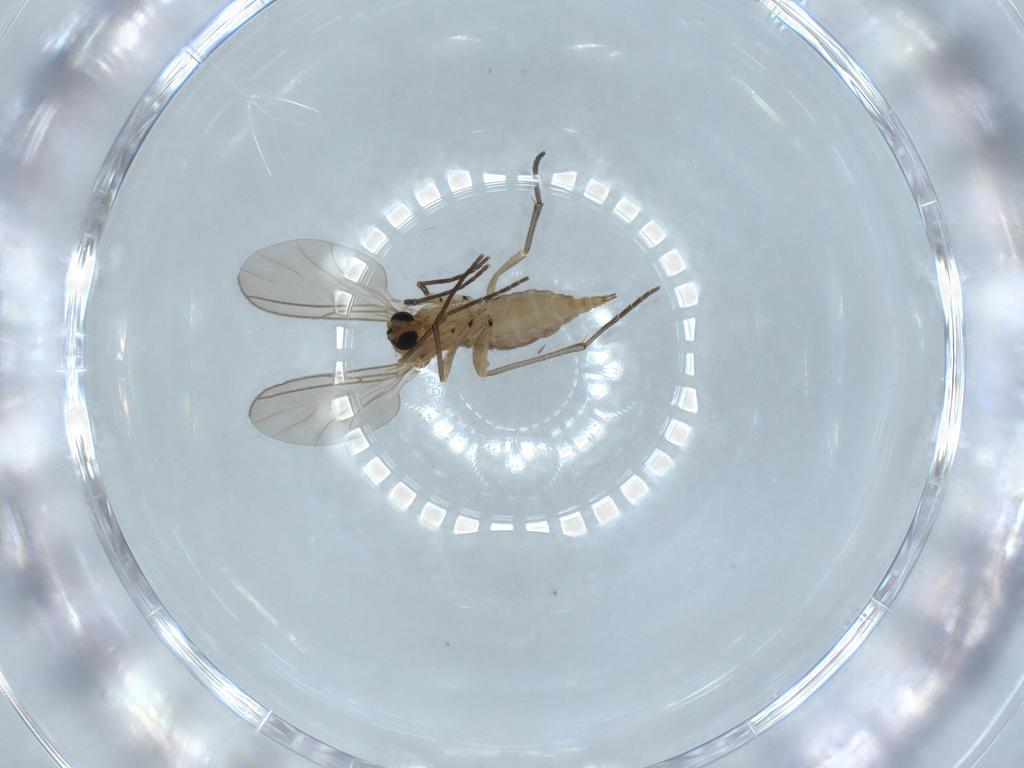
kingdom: Animalia
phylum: Arthropoda
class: Insecta
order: Diptera
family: Sciaridae
